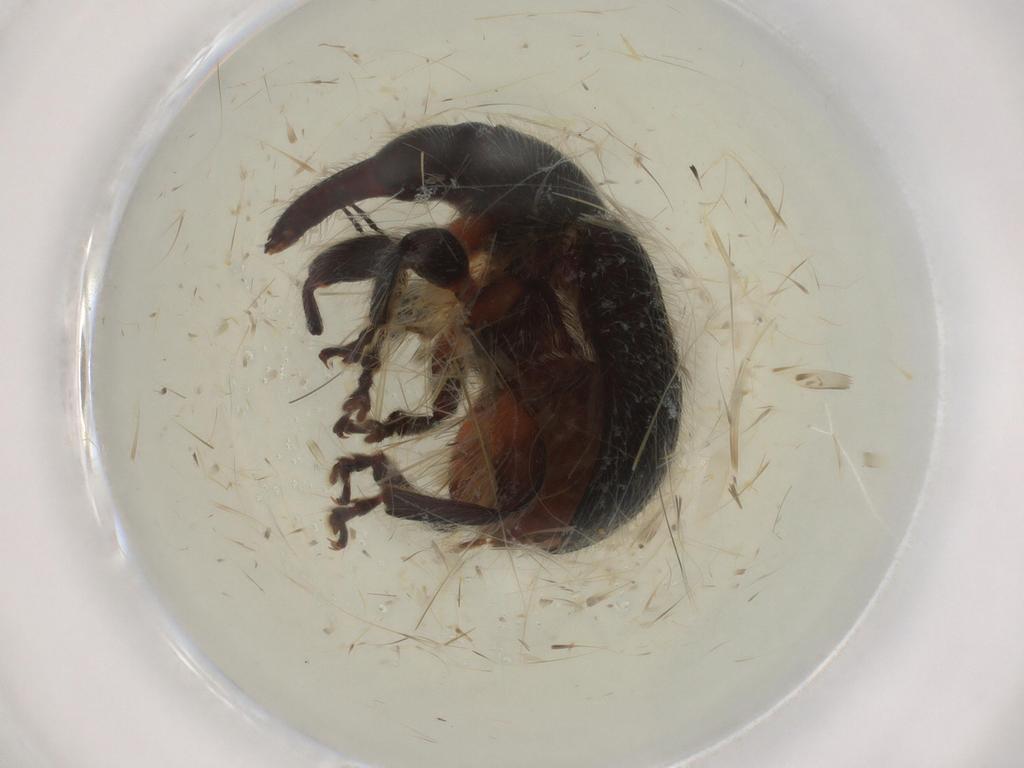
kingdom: Animalia
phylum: Arthropoda
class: Insecta
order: Coleoptera
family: Attelabidae
